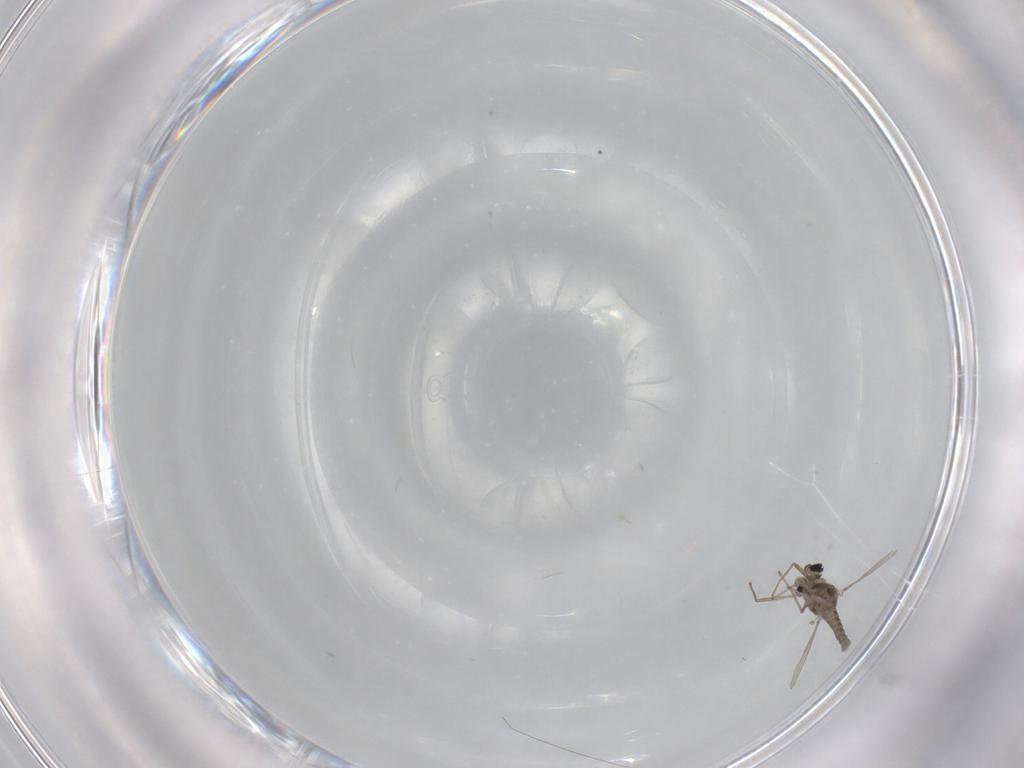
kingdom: Animalia
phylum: Arthropoda
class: Insecta
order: Diptera
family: Chironomidae
